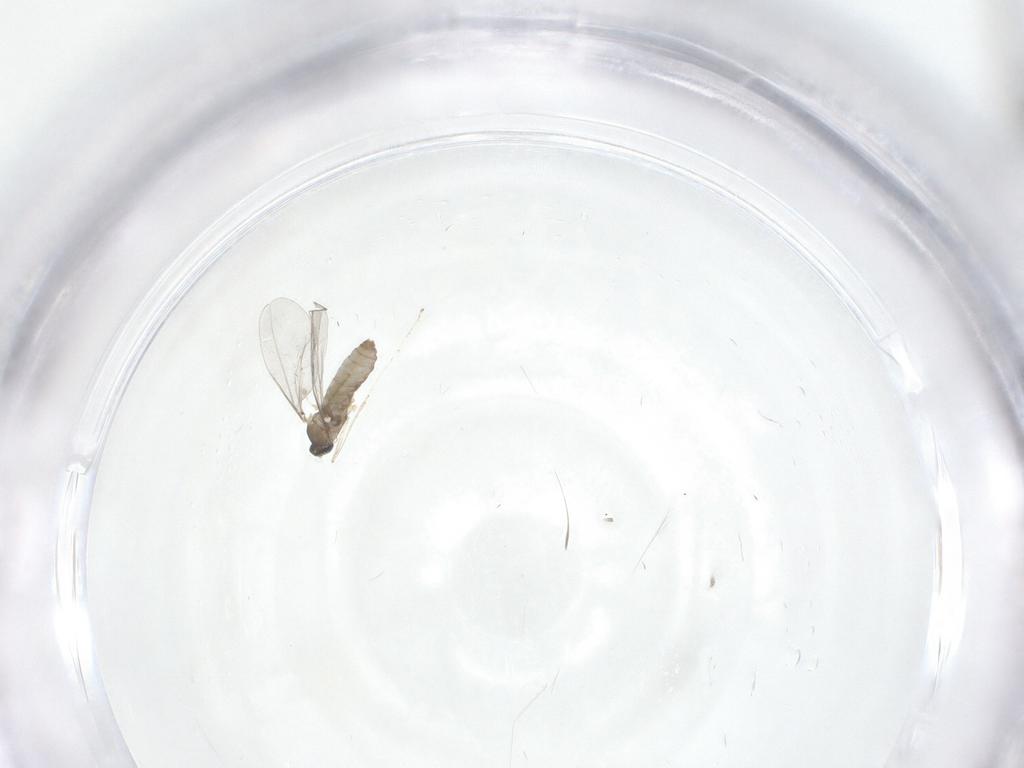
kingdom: Animalia
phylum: Arthropoda
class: Insecta
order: Diptera
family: Cecidomyiidae
